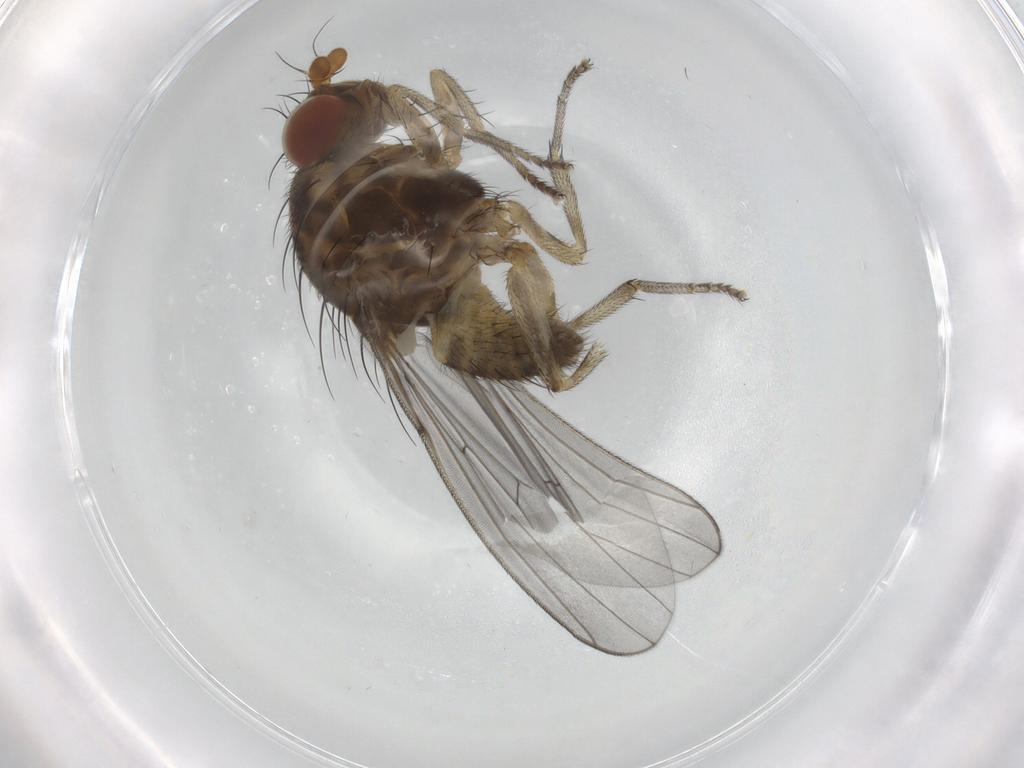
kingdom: Animalia
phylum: Arthropoda
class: Insecta
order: Diptera
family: Lauxaniidae
